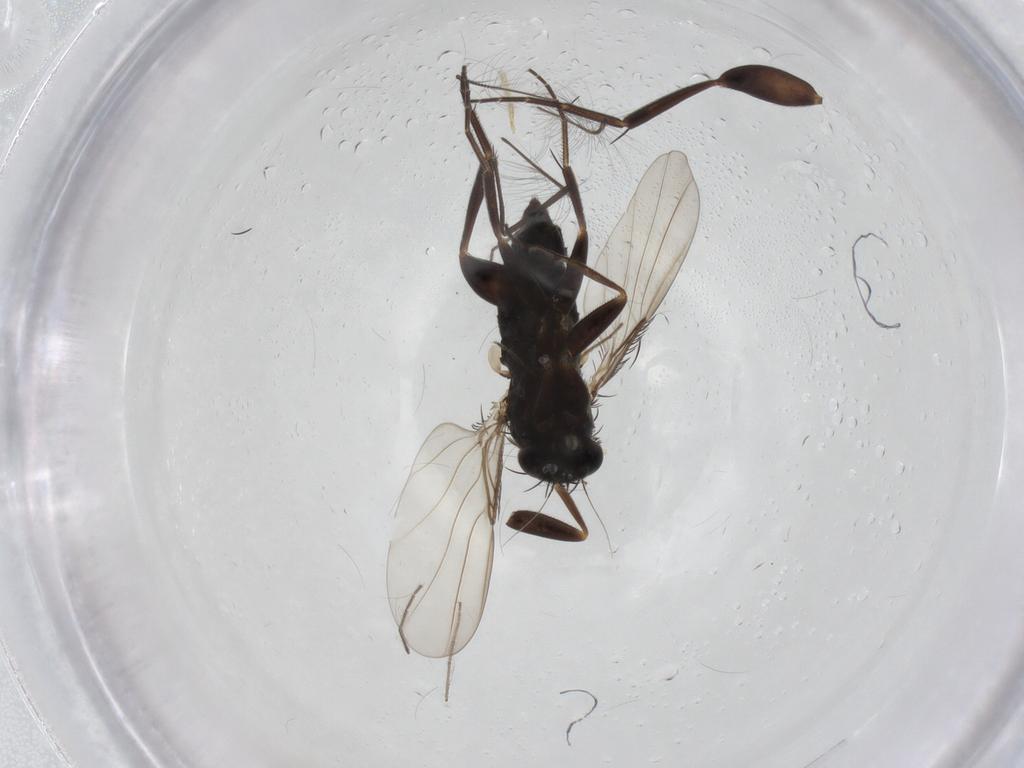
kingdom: Animalia
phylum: Arthropoda
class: Insecta
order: Diptera
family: Phoridae
